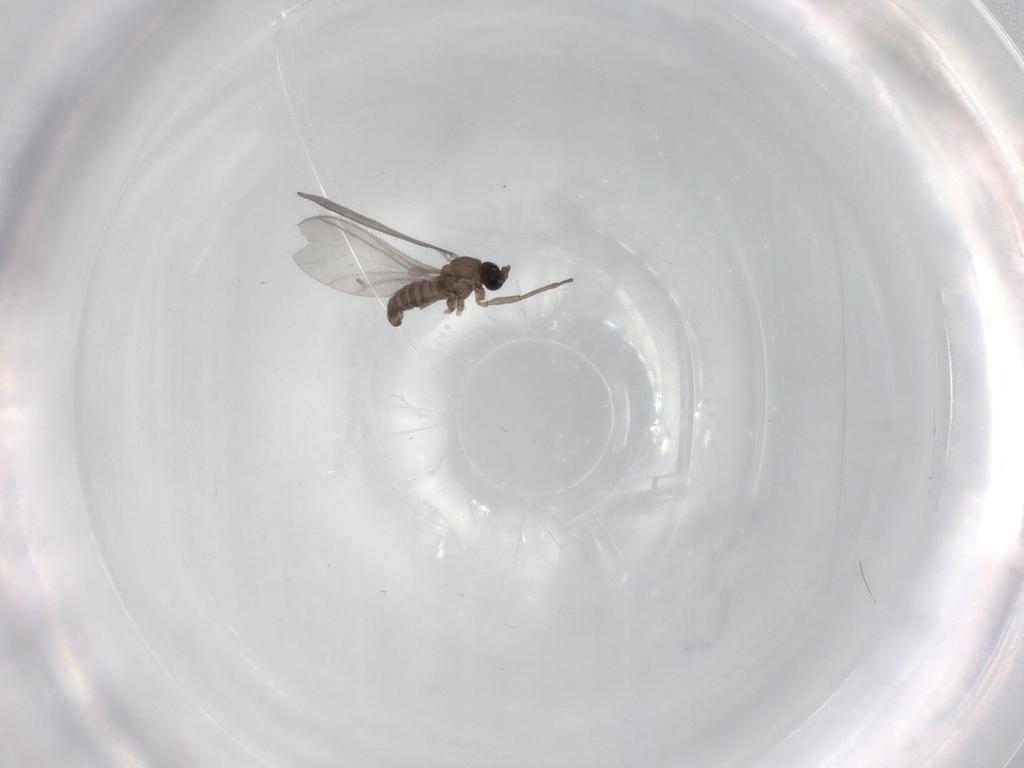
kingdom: Animalia
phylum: Arthropoda
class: Insecta
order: Diptera
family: Sciaridae
